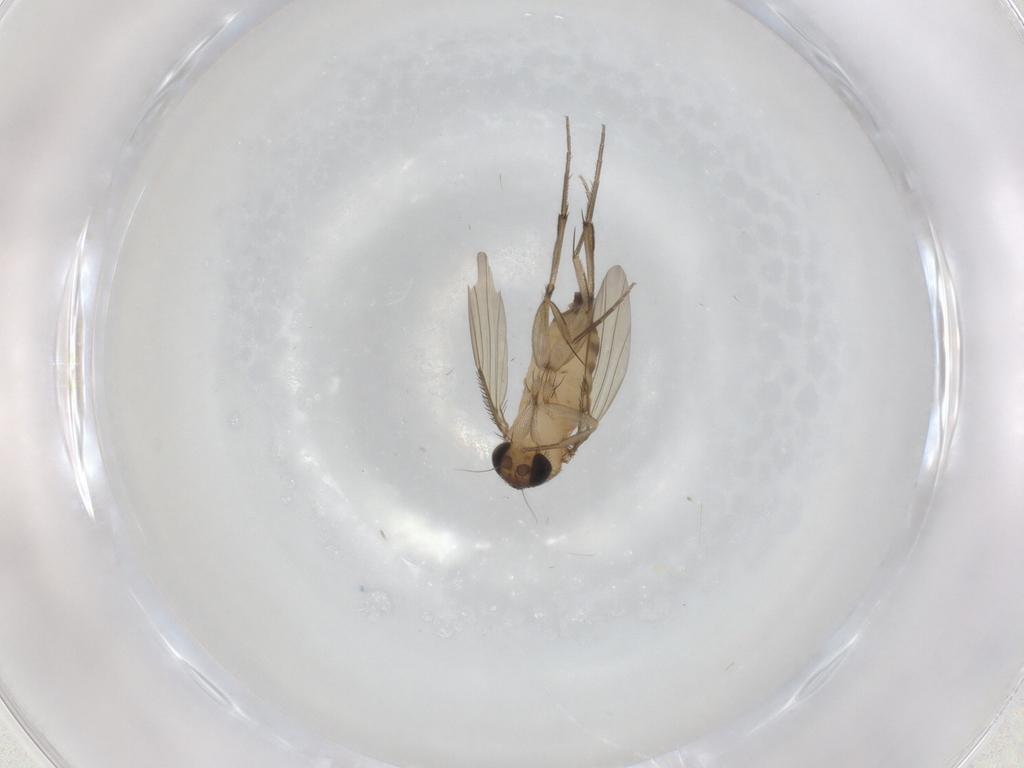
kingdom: Animalia
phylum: Arthropoda
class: Insecta
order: Diptera
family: Phoridae
